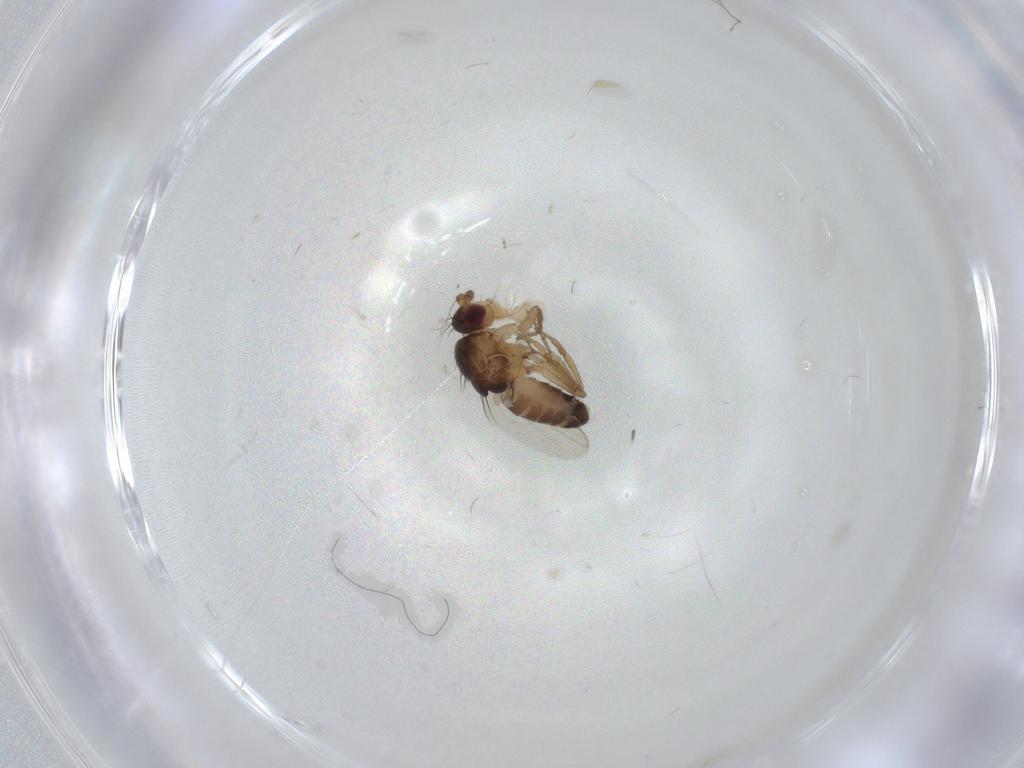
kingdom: Animalia
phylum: Arthropoda
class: Insecta
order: Diptera
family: Sphaeroceridae
